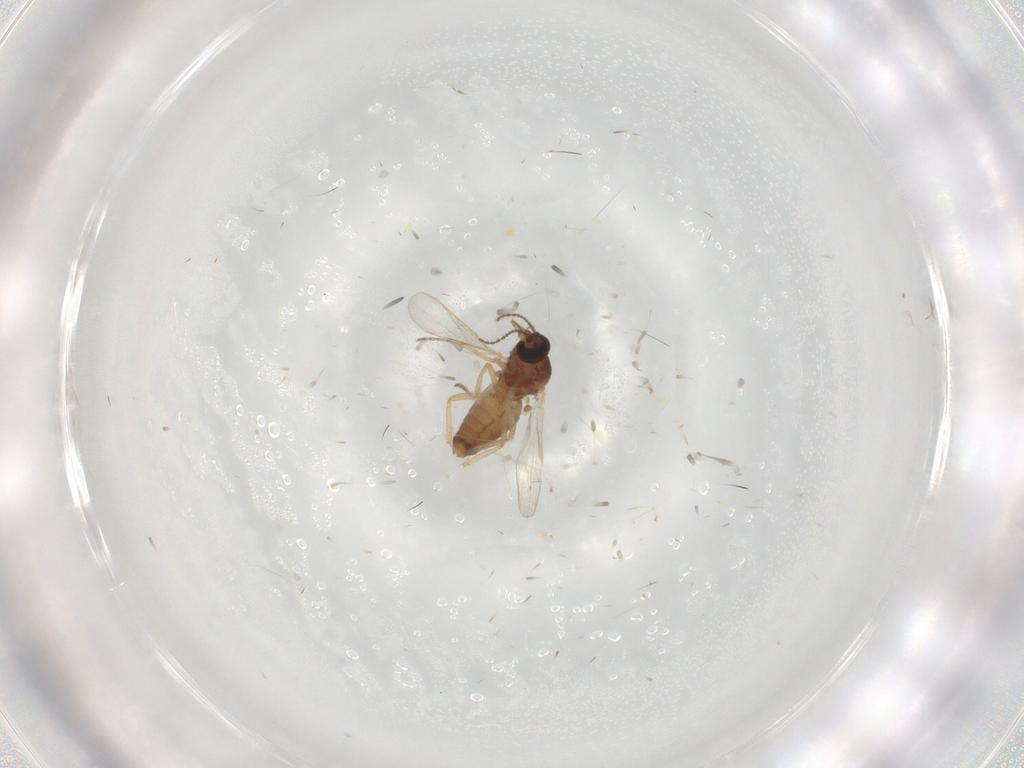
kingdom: Animalia
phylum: Arthropoda
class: Insecta
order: Diptera
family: Ceratopogonidae
